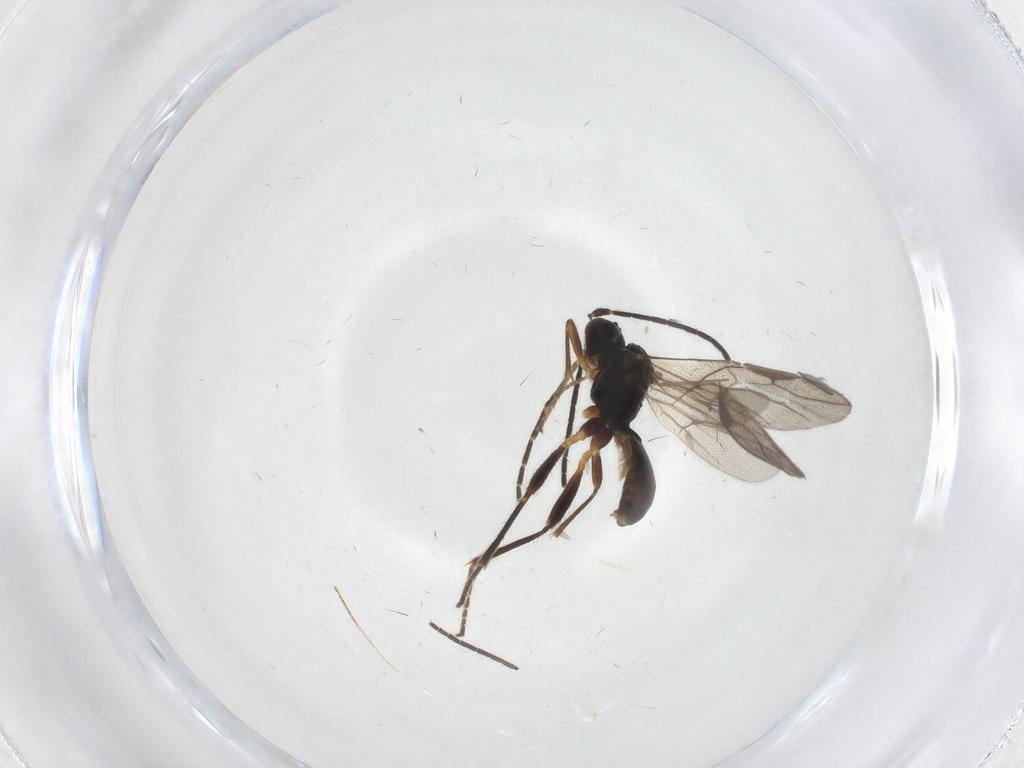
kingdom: Animalia
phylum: Arthropoda
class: Insecta
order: Hymenoptera
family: Braconidae
